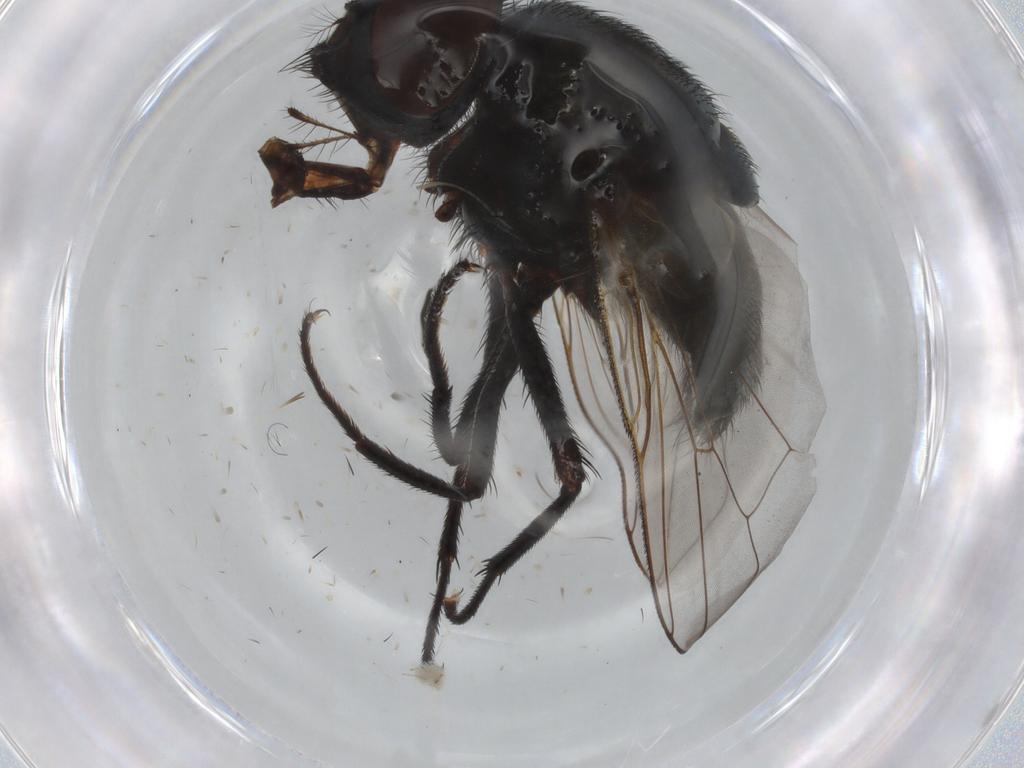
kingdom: Animalia
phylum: Arthropoda
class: Insecta
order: Diptera
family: Muscidae
